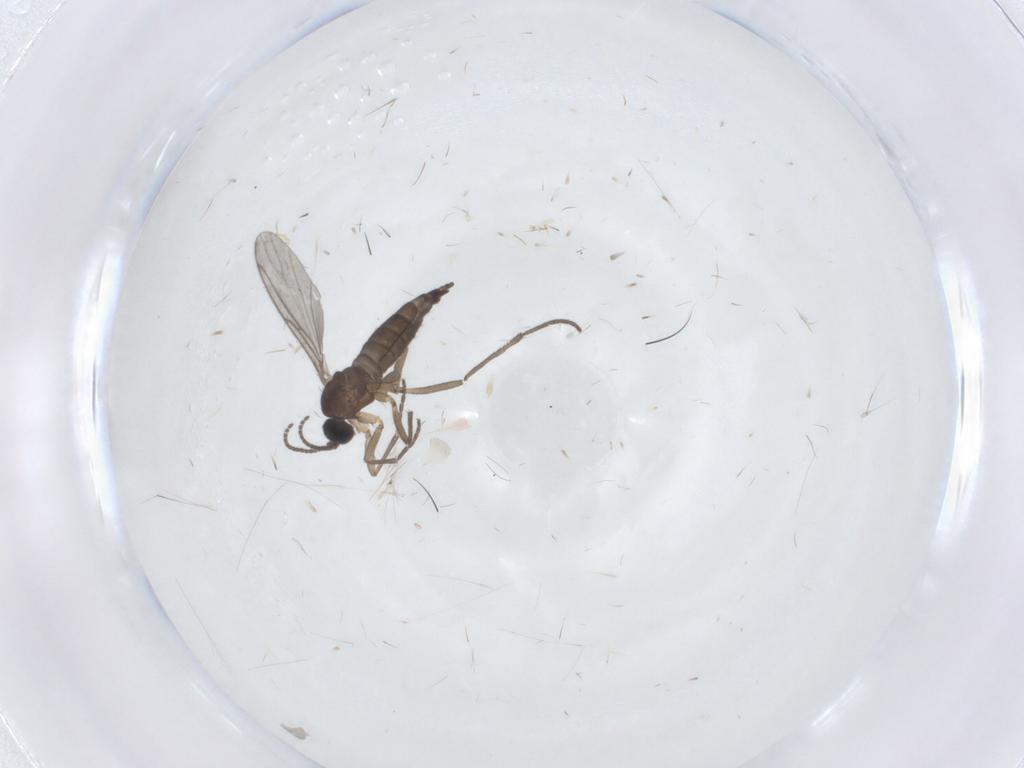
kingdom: Animalia
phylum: Arthropoda
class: Insecta
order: Diptera
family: Sciaridae
